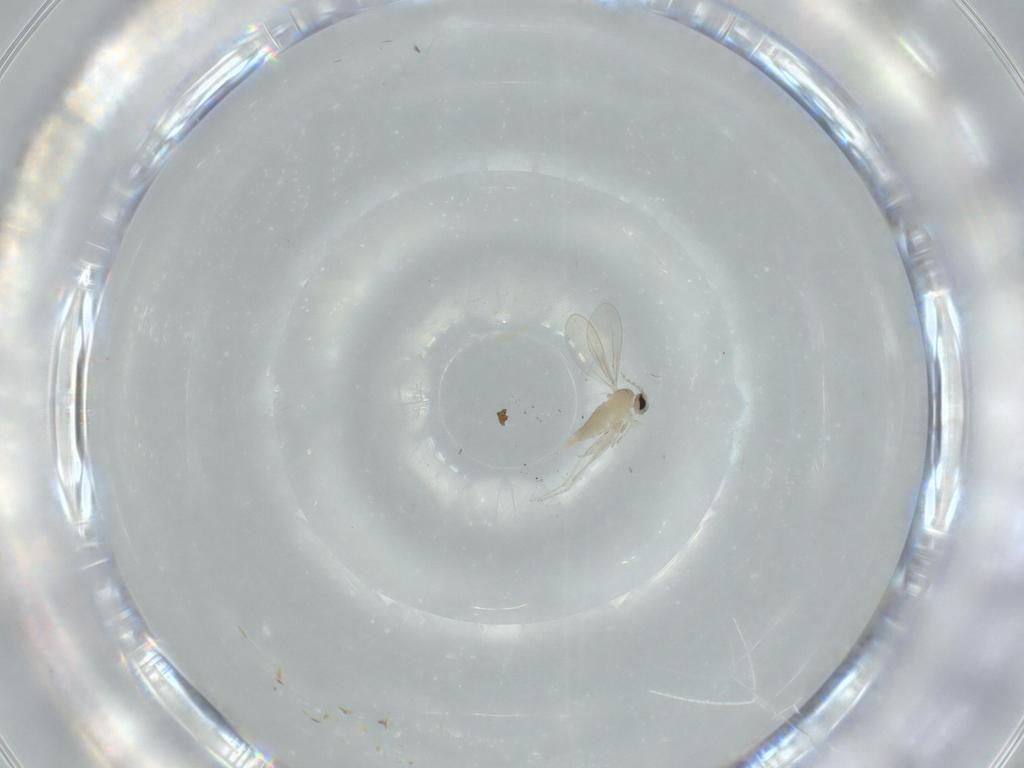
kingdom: Animalia
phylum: Arthropoda
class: Insecta
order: Diptera
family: Cecidomyiidae
